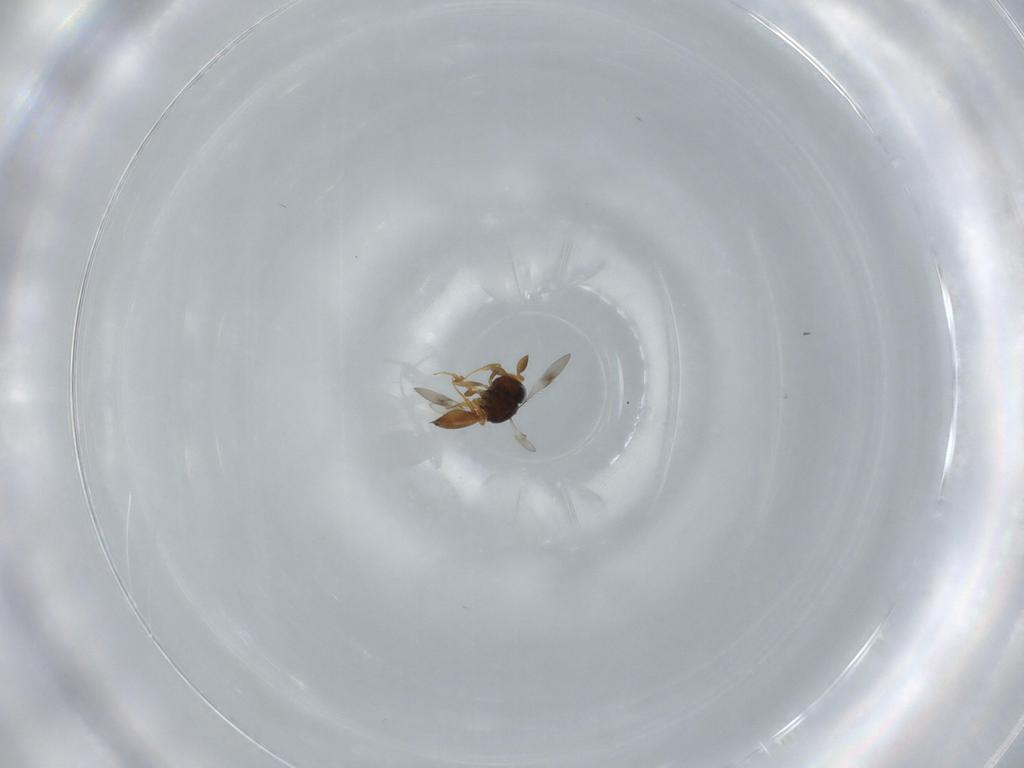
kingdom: Animalia
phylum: Arthropoda
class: Insecta
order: Hymenoptera
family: Scelionidae
